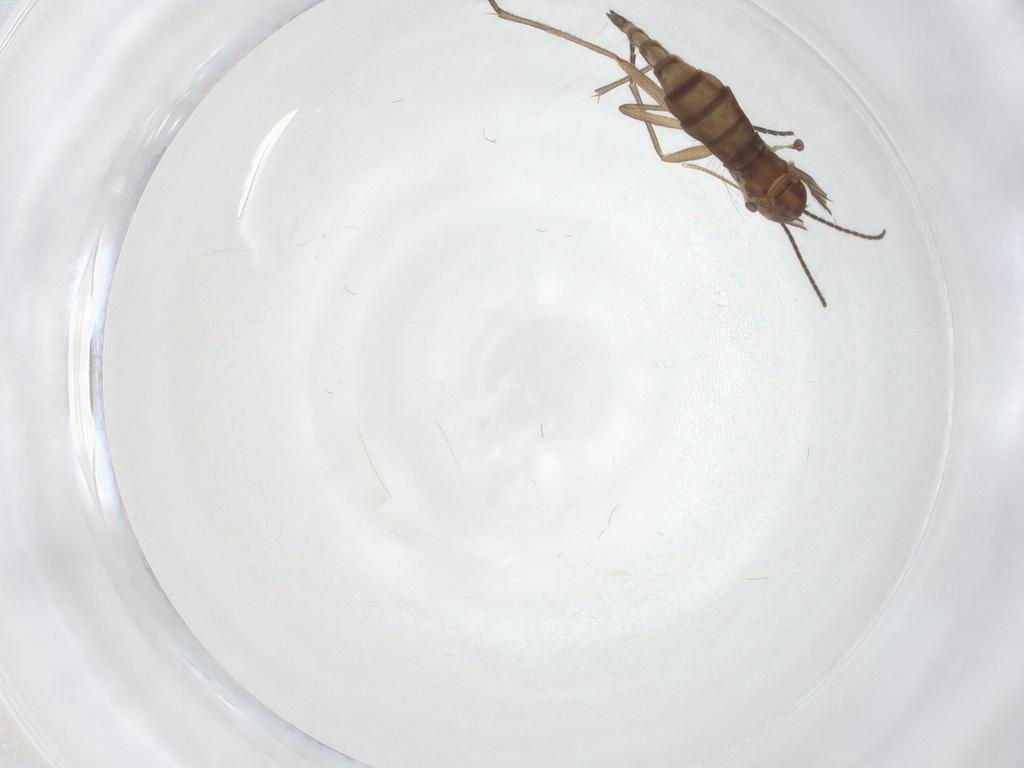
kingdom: Animalia
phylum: Arthropoda
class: Insecta
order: Diptera
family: Sciaridae
